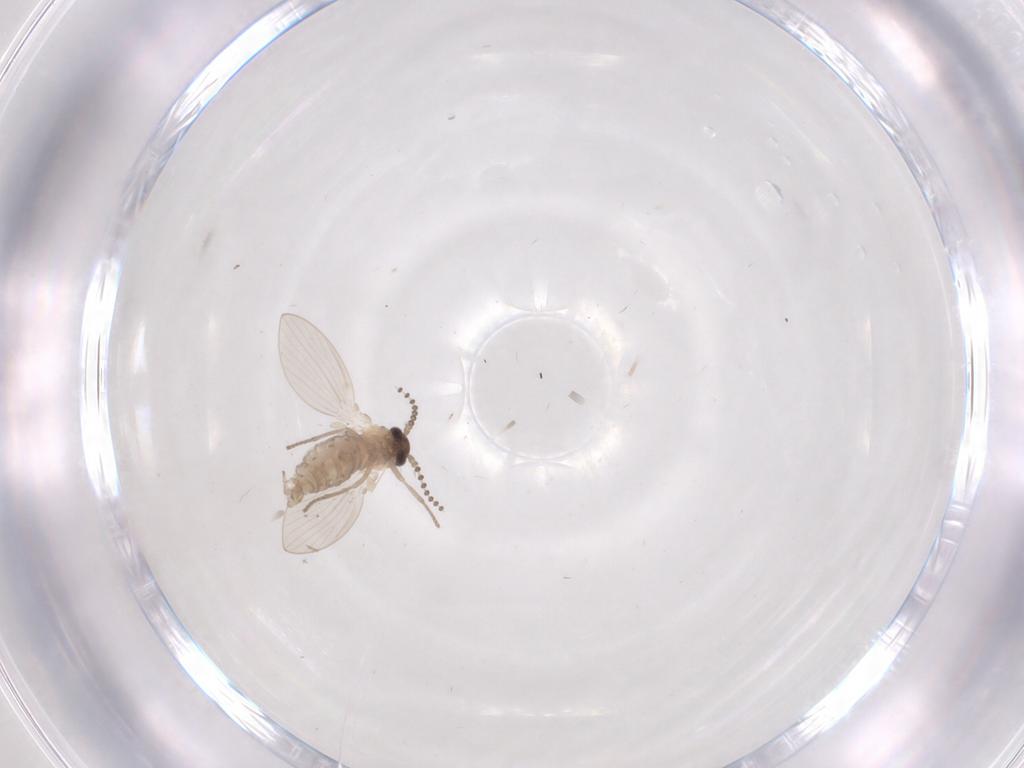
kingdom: Animalia
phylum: Arthropoda
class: Insecta
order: Diptera
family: Psychodidae
